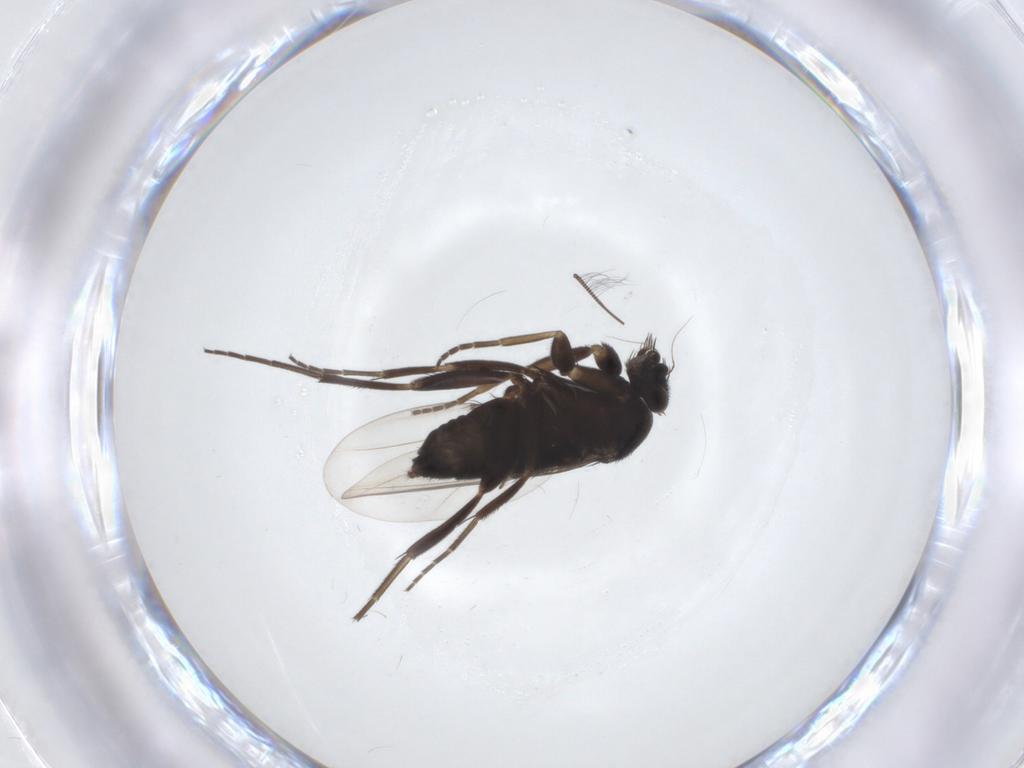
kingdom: Animalia
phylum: Arthropoda
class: Insecta
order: Diptera
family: Phoridae
